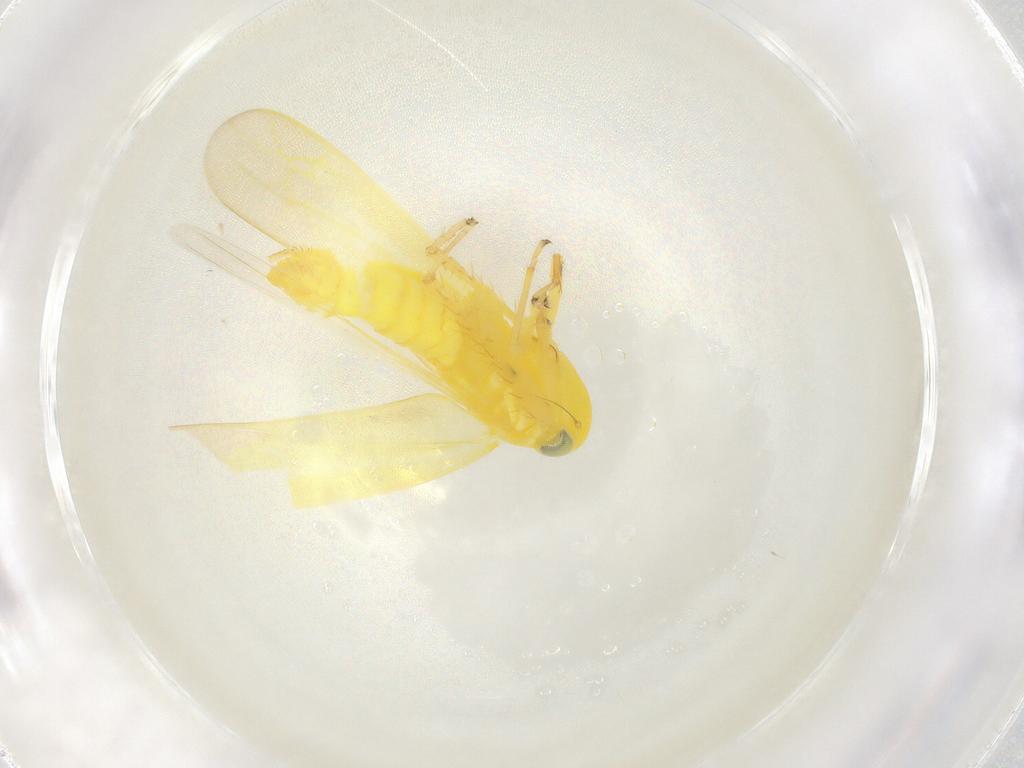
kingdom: Animalia
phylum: Arthropoda
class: Insecta
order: Hemiptera
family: Cicadellidae
